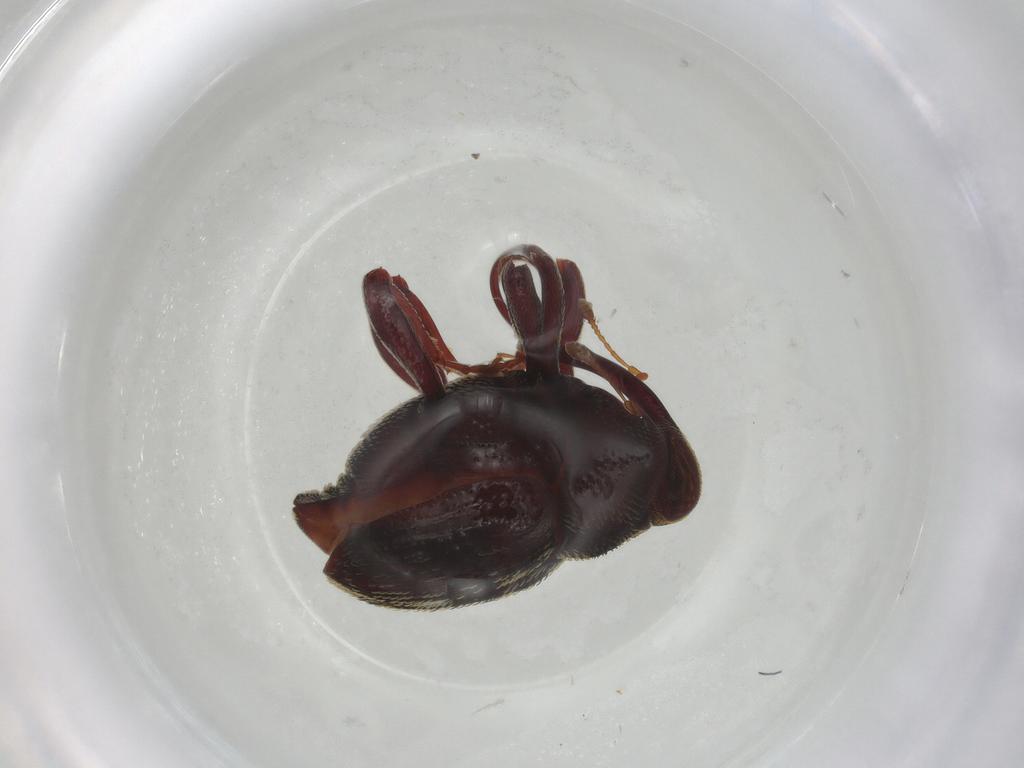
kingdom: Animalia
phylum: Arthropoda
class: Insecta
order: Coleoptera
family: Curculionidae
